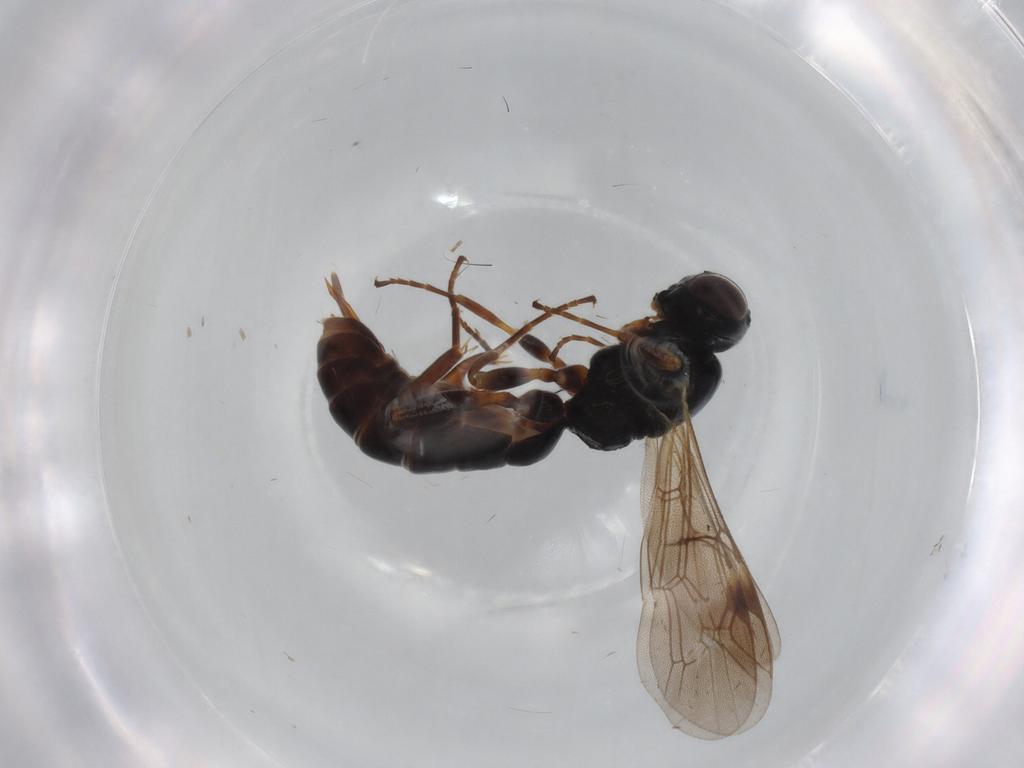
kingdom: Animalia
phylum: Arthropoda
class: Insecta
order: Hymenoptera
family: Ichneumonidae
